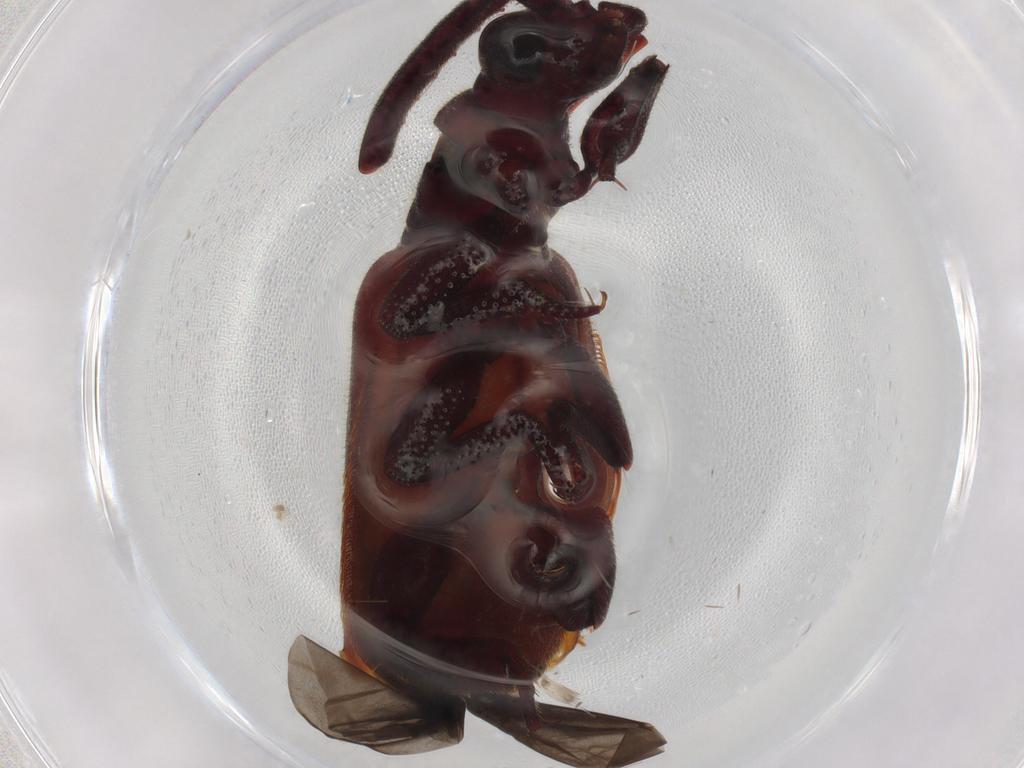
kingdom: Animalia
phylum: Arthropoda
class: Insecta
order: Coleoptera
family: Carabidae
